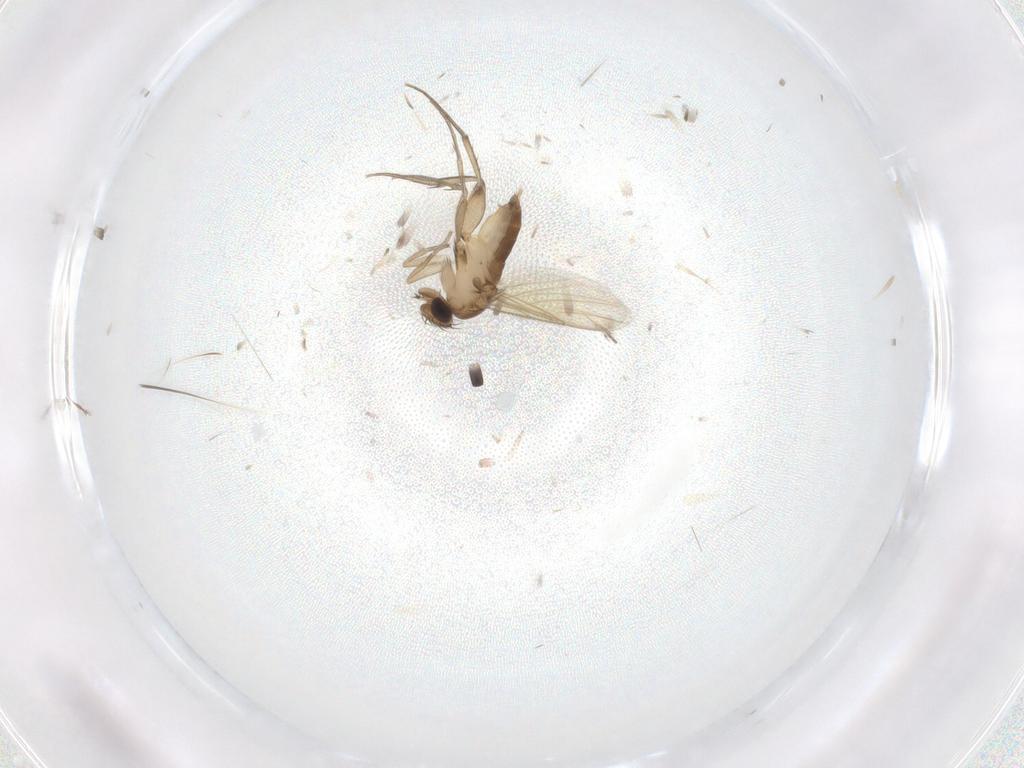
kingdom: Animalia
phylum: Arthropoda
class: Insecta
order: Diptera
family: Phoridae
